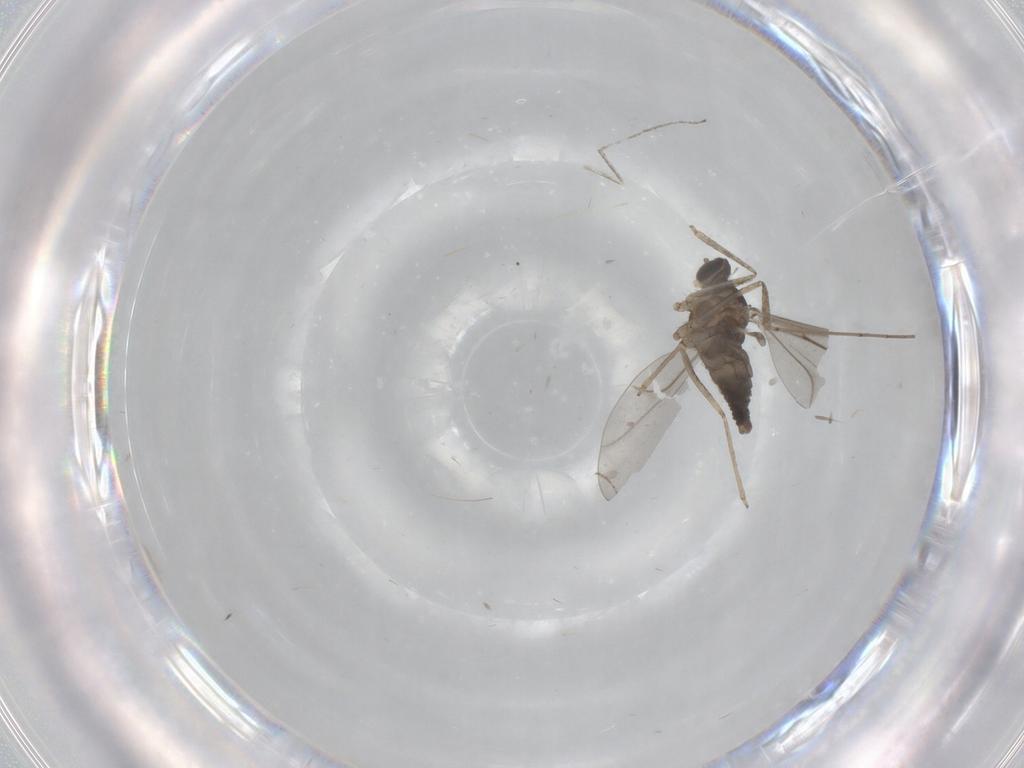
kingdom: Animalia
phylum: Arthropoda
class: Insecta
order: Diptera
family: Cecidomyiidae
